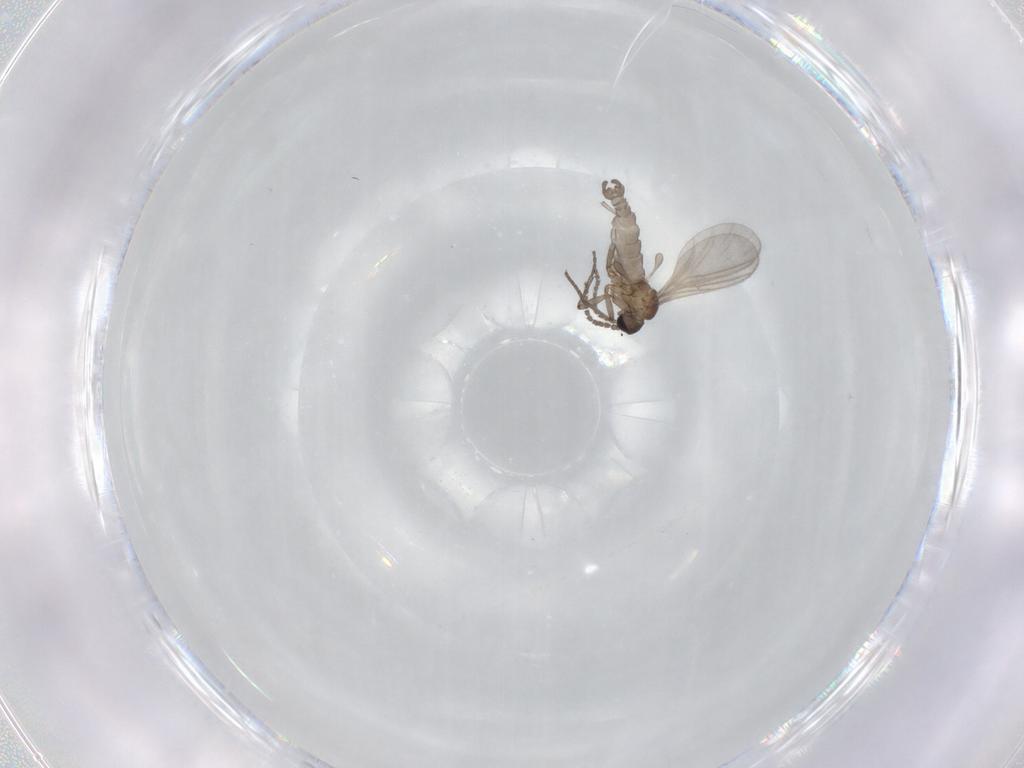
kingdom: Animalia
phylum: Arthropoda
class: Insecta
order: Diptera
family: Sciaridae
